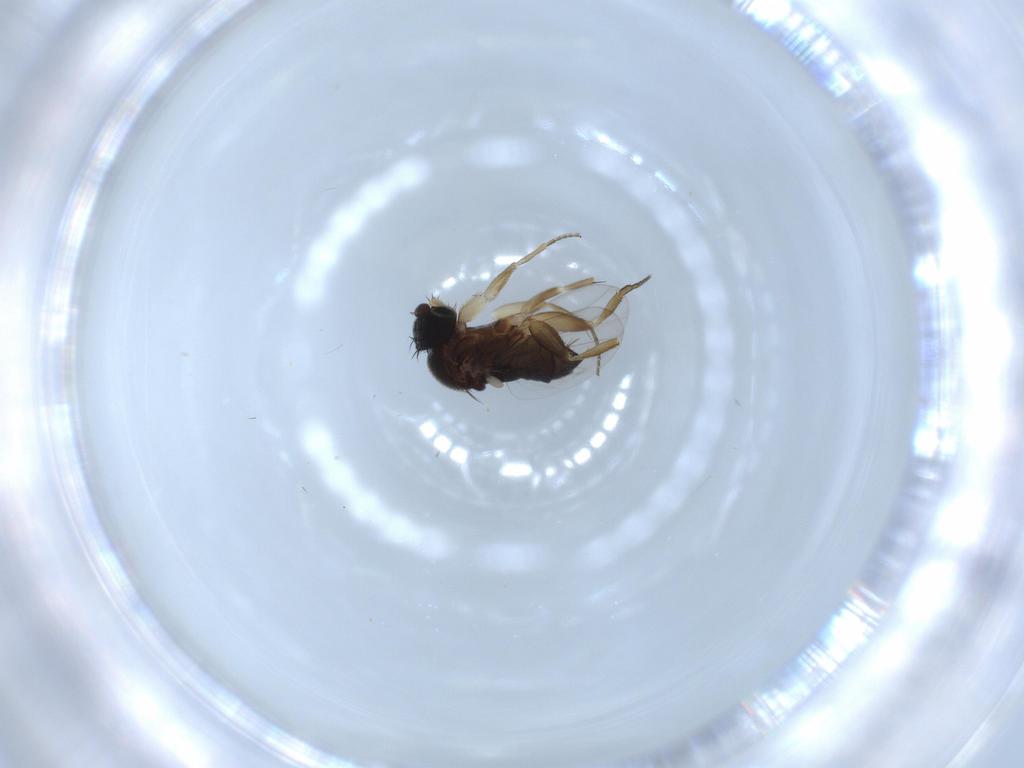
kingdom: Animalia
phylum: Arthropoda
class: Insecta
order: Diptera
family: Phoridae
